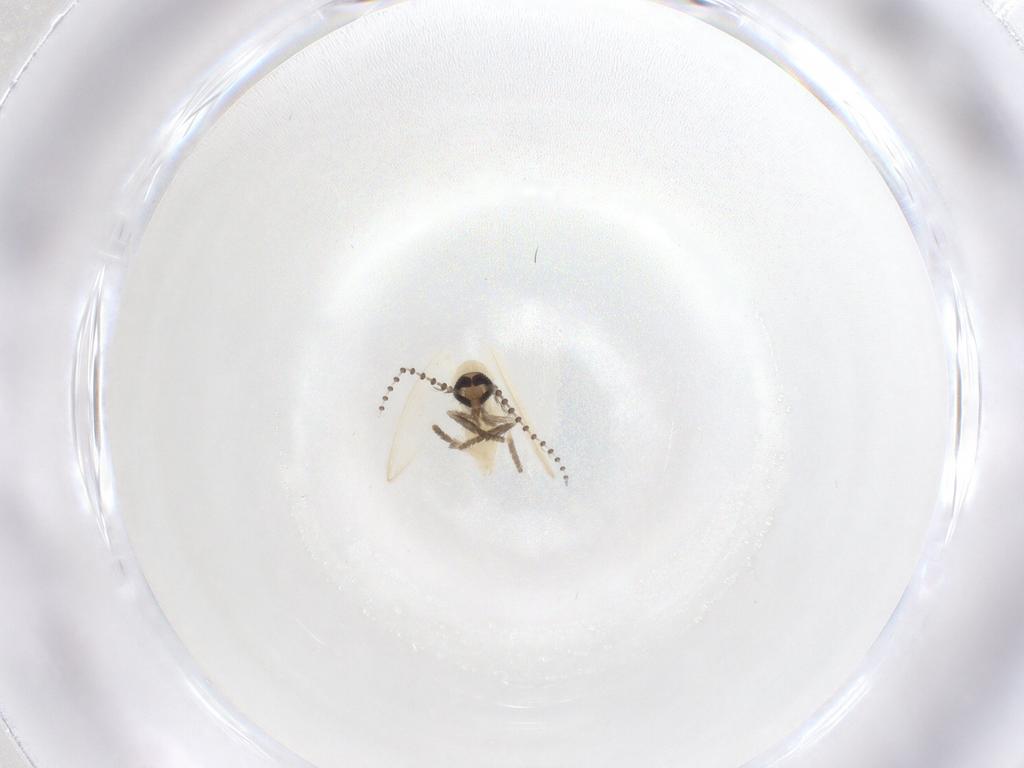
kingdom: Animalia
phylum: Arthropoda
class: Insecta
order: Diptera
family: Psychodidae
